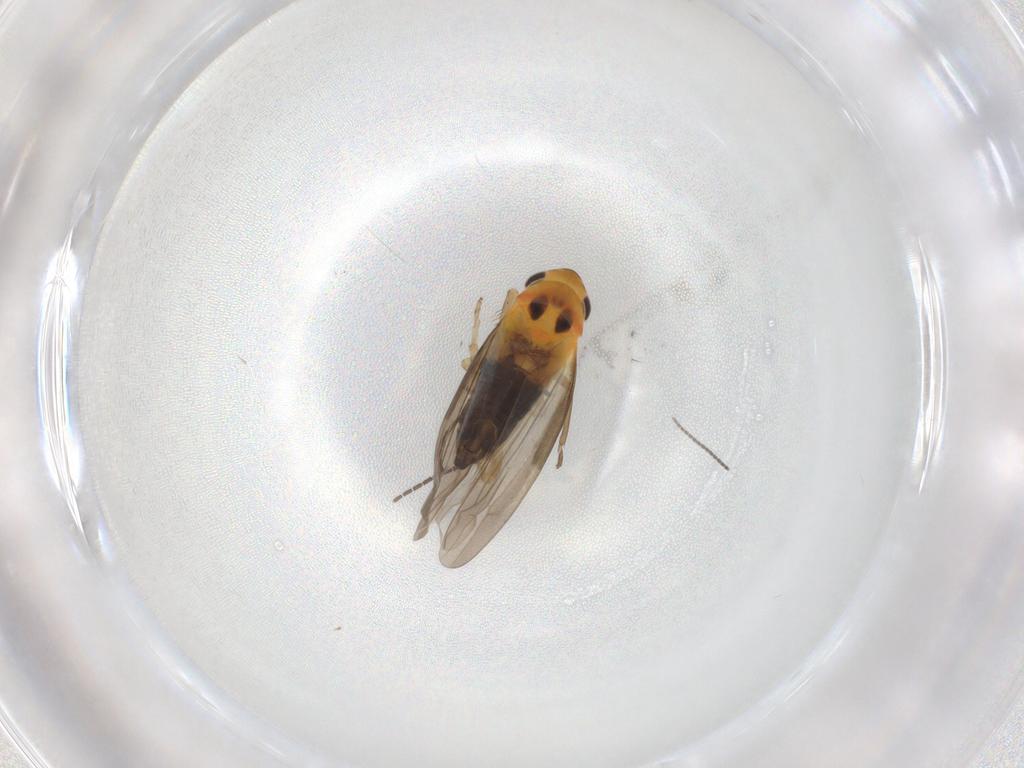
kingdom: Animalia
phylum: Arthropoda
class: Insecta
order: Hemiptera
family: Cicadellidae
